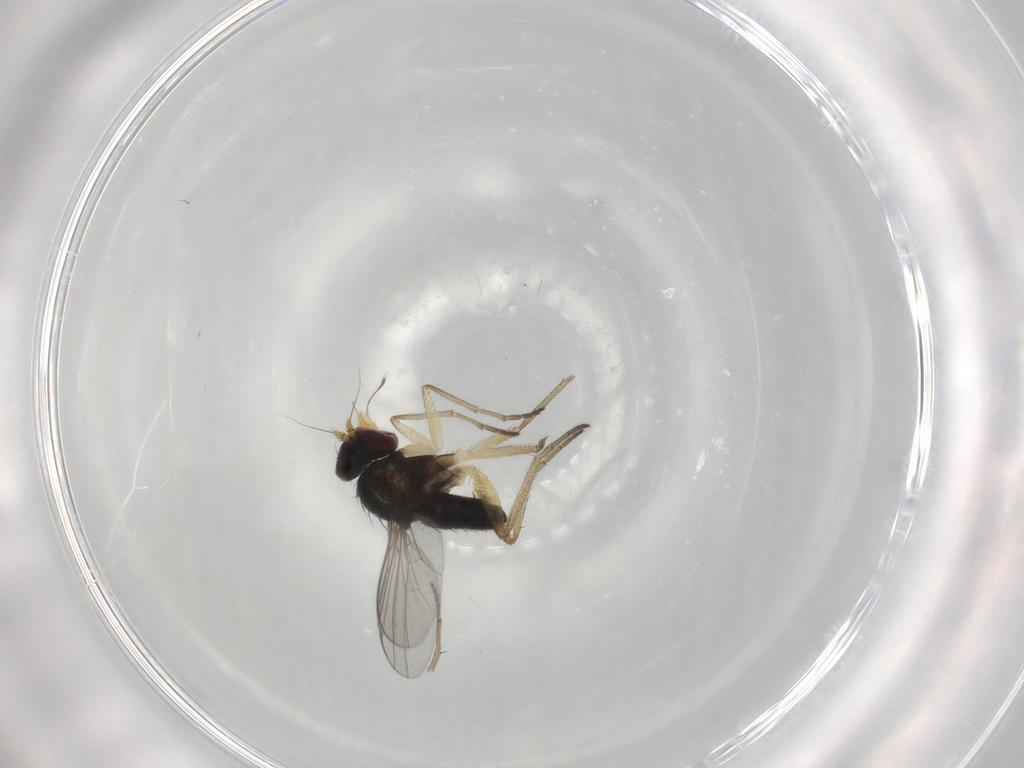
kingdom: Animalia
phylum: Arthropoda
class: Insecta
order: Diptera
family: Dolichopodidae
